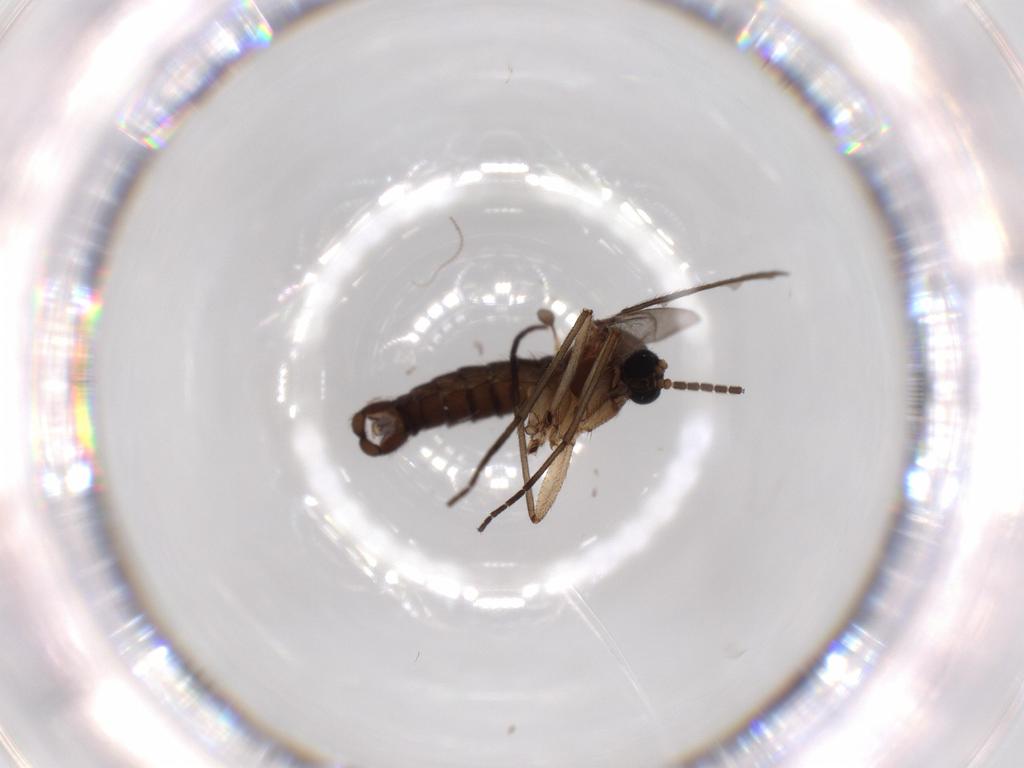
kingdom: Animalia
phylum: Arthropoda
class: Insecta
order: Diptera
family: Sciaridae
